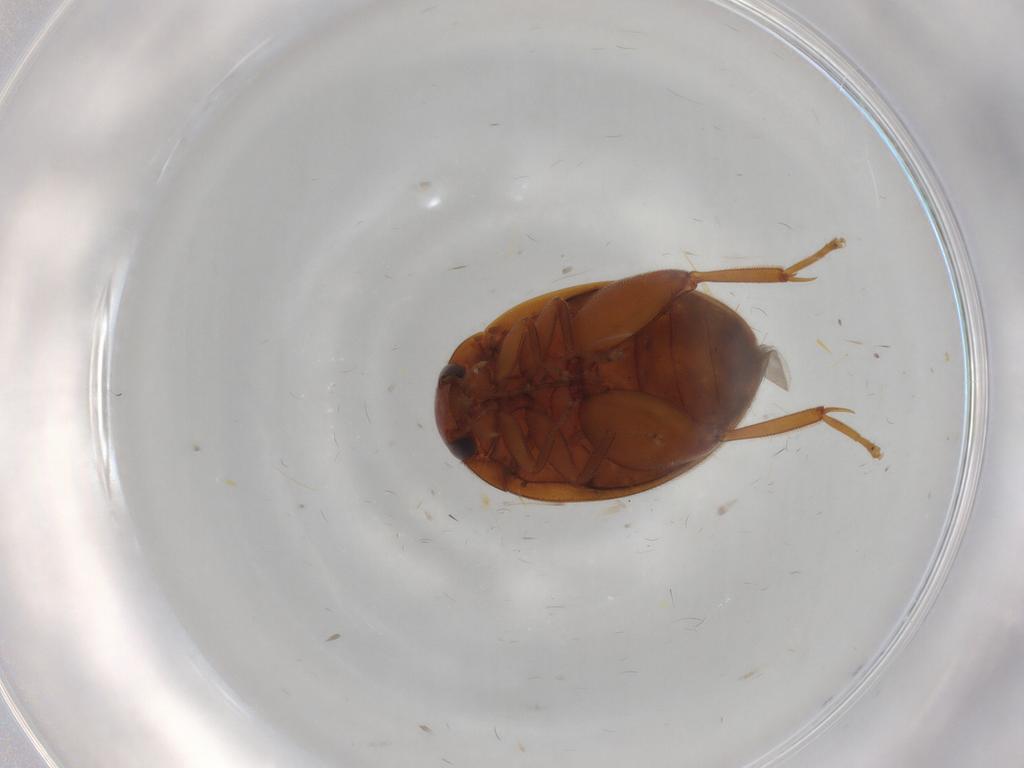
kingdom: Animalia
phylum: Arthropoda
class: Insecta
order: Coleoptera
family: Scirtidae
